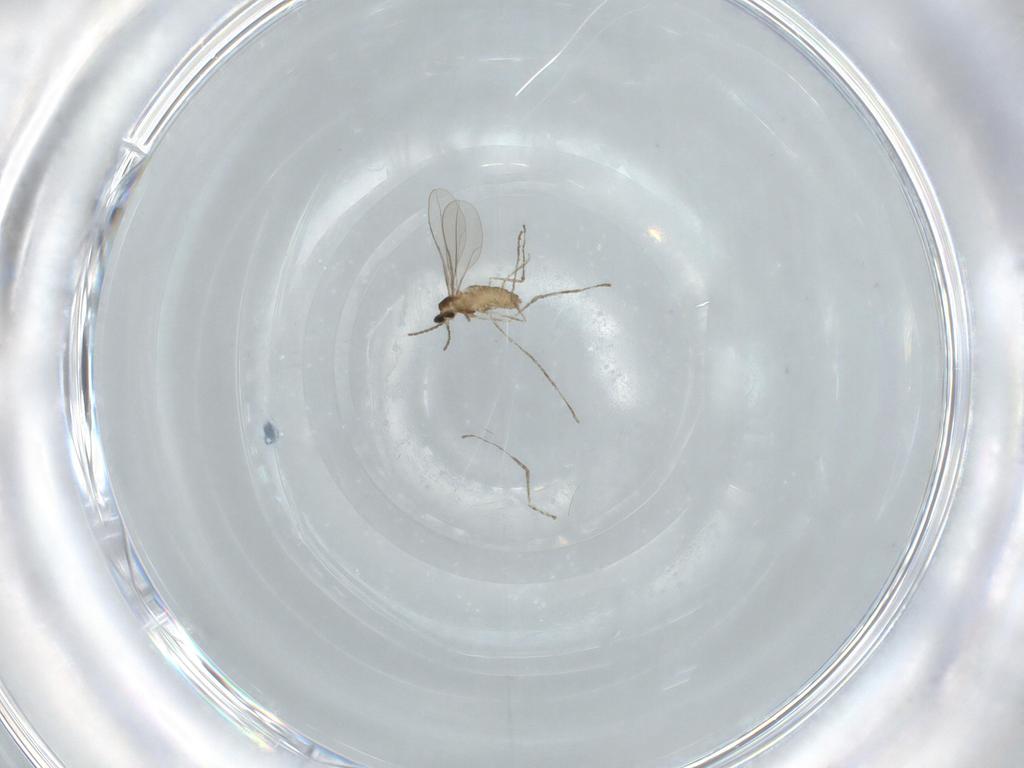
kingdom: Animalia
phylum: Arthropoda
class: Insecta
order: Diptera
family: Cecidomyiidae
